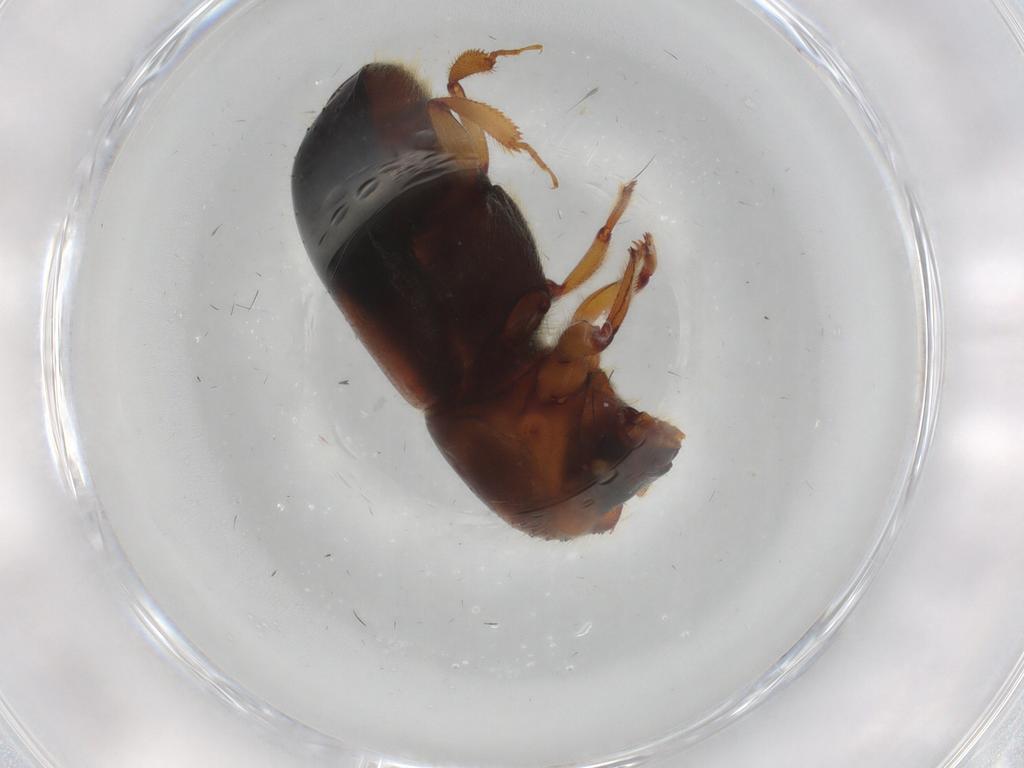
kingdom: Animalia
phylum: Arthropoda
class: Insecta
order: Coleoptera
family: Curculionidae
